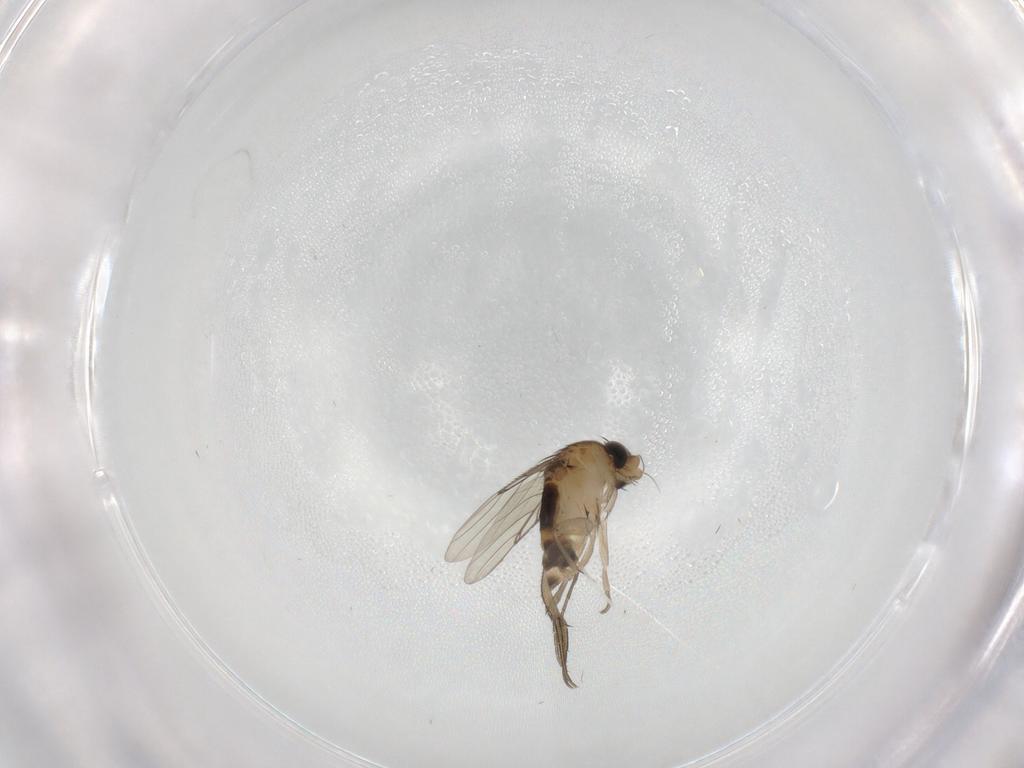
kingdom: Animalia
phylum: Arthropoda
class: Insecta
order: Diptera
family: Phoridae
